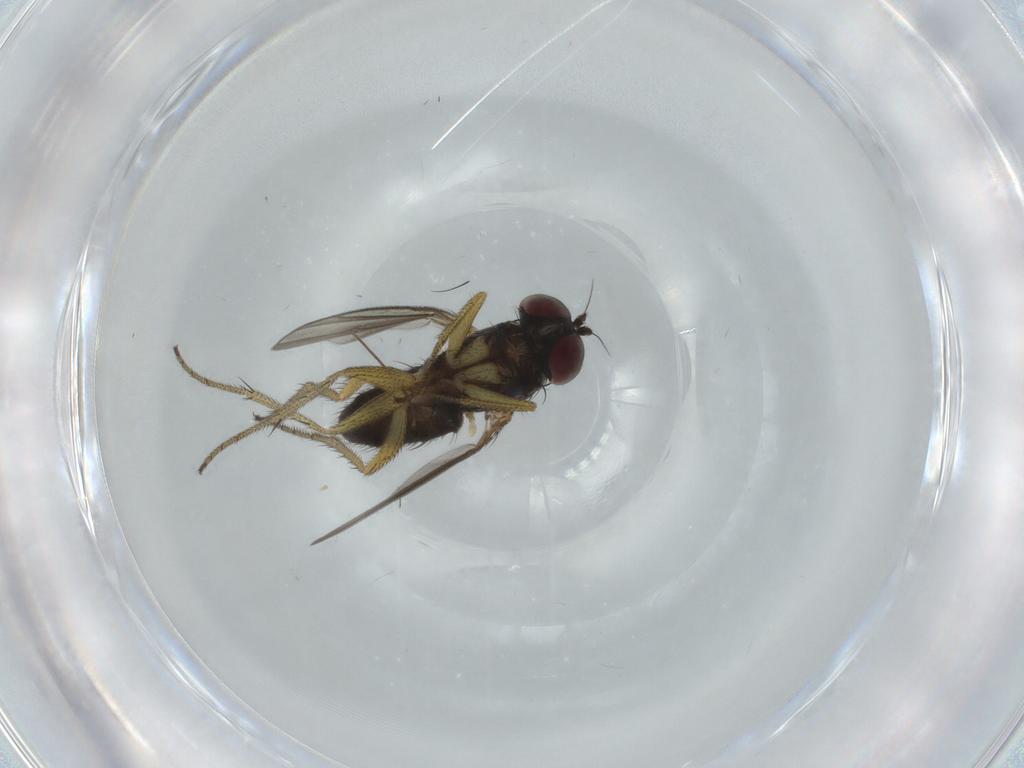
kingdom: Animalia
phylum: Arthropoda
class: Insecta
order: Diptera
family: Dolichopodidae
